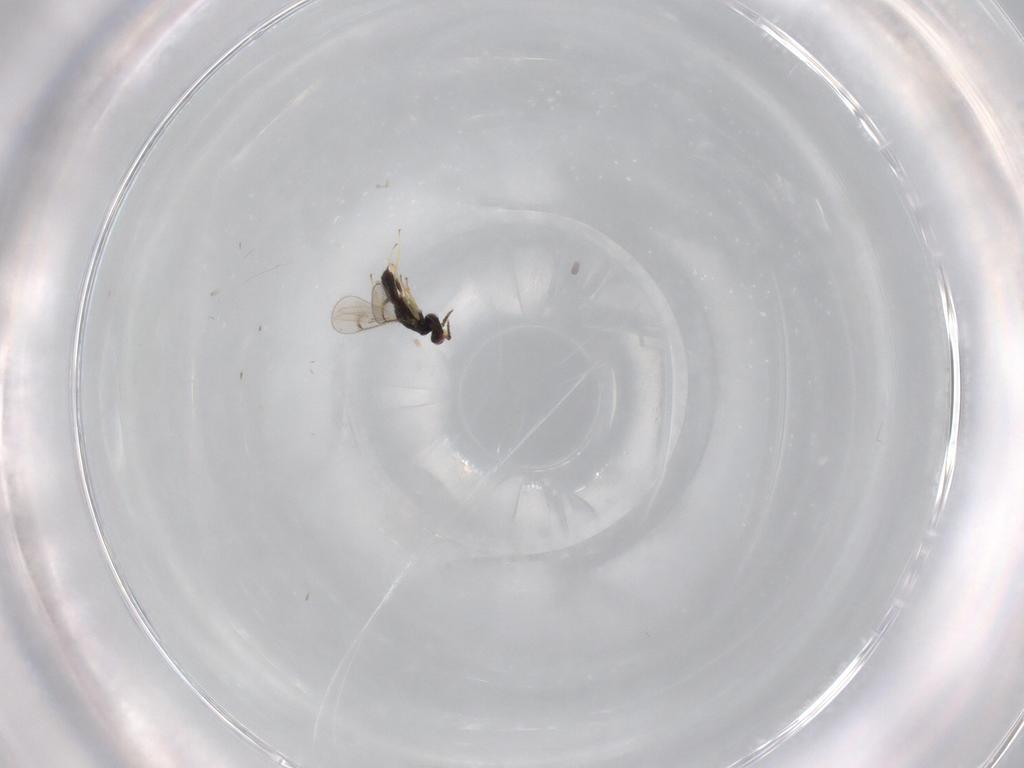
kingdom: Animalia
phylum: Arthropoda
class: Insecta
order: Hymenoptera
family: Eulophidae
